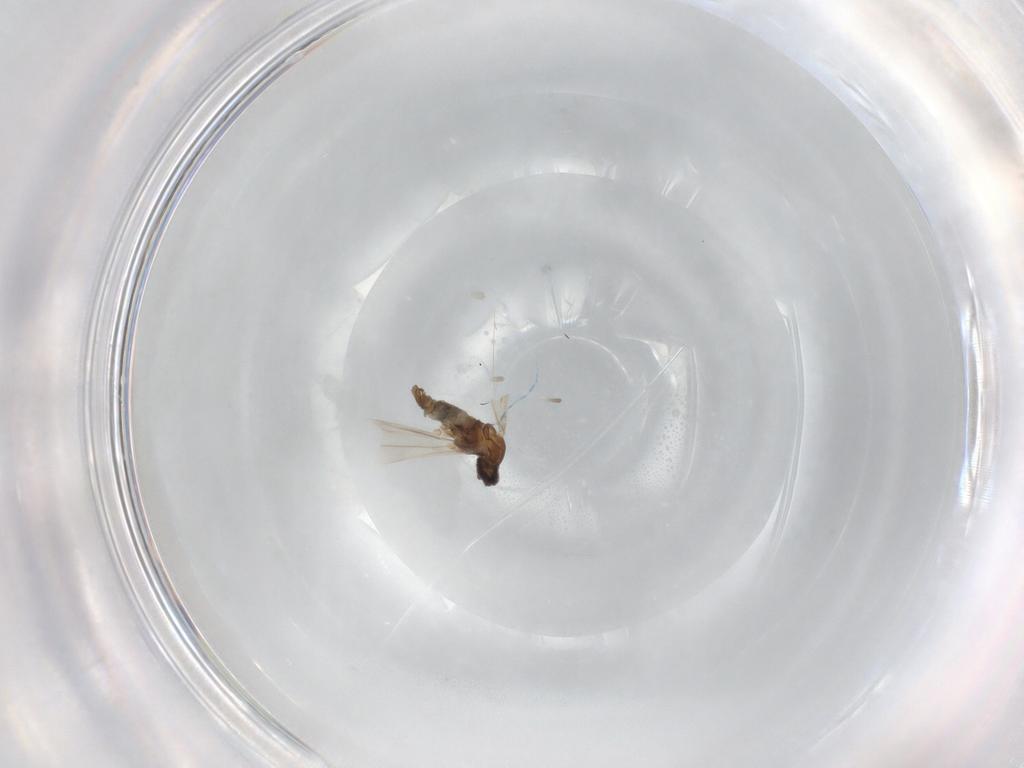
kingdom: Animalia
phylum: Arthropoda
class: Insecta
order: Diptera
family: Cecidomyiidae
